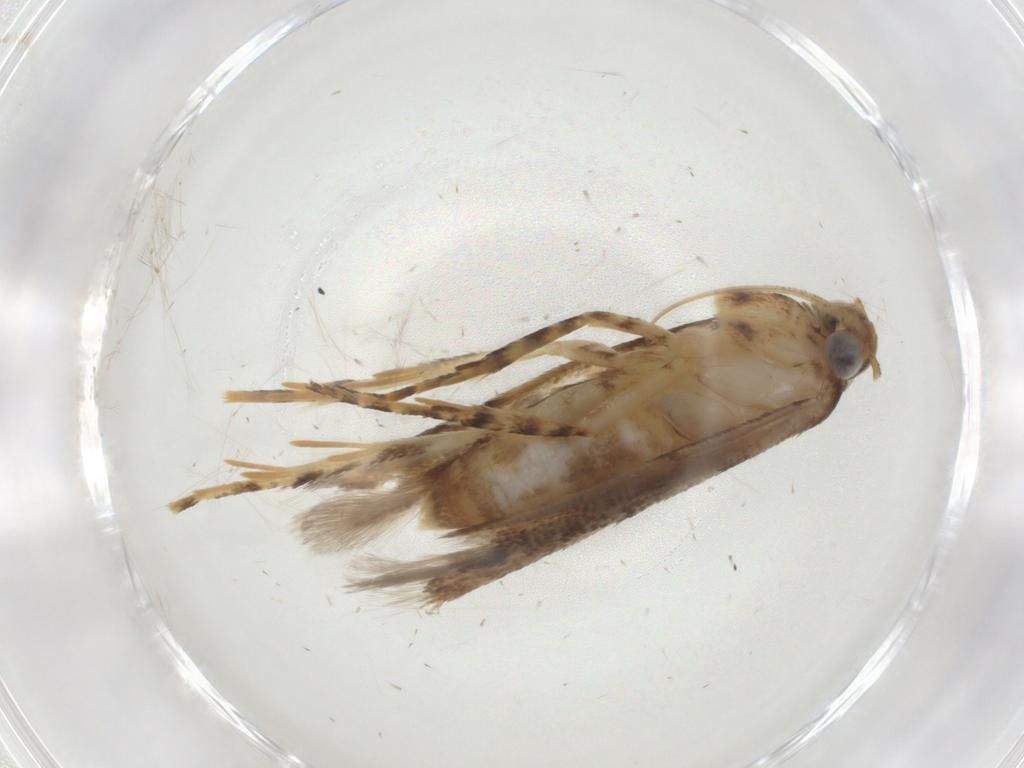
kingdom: Animalia
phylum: Arthropoda
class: Insecta
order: Lepidoptera
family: Gelechiidae
